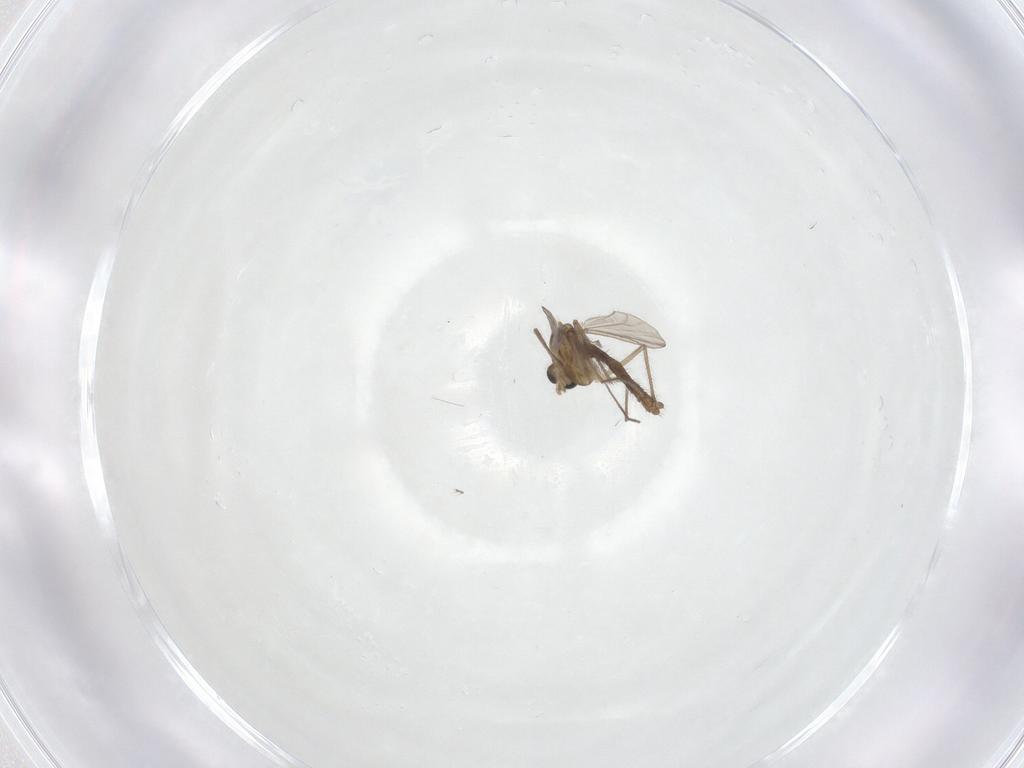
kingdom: Animalia
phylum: Arthropoda
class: Insecta
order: Diptera
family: Chironomidae
